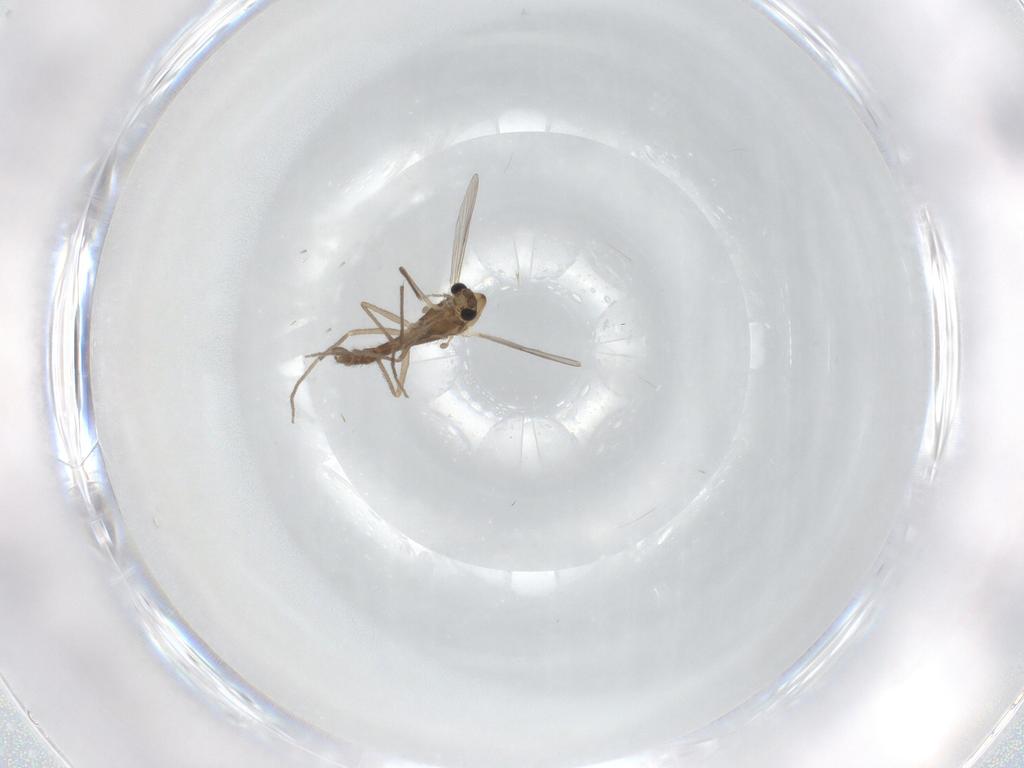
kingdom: Animalia
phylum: Arthropoda
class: Insecta
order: Diptera
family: Chironomidae
